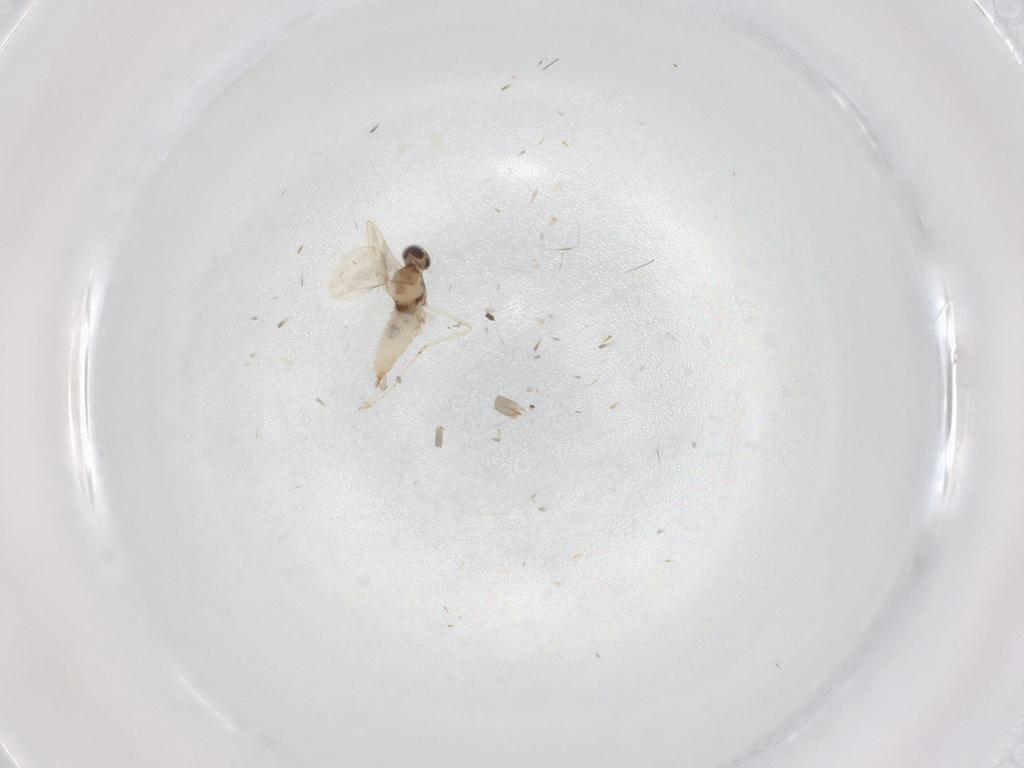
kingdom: Animalia
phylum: Arthropoda
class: Insecta
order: Diptera
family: Cecidomyiidae
